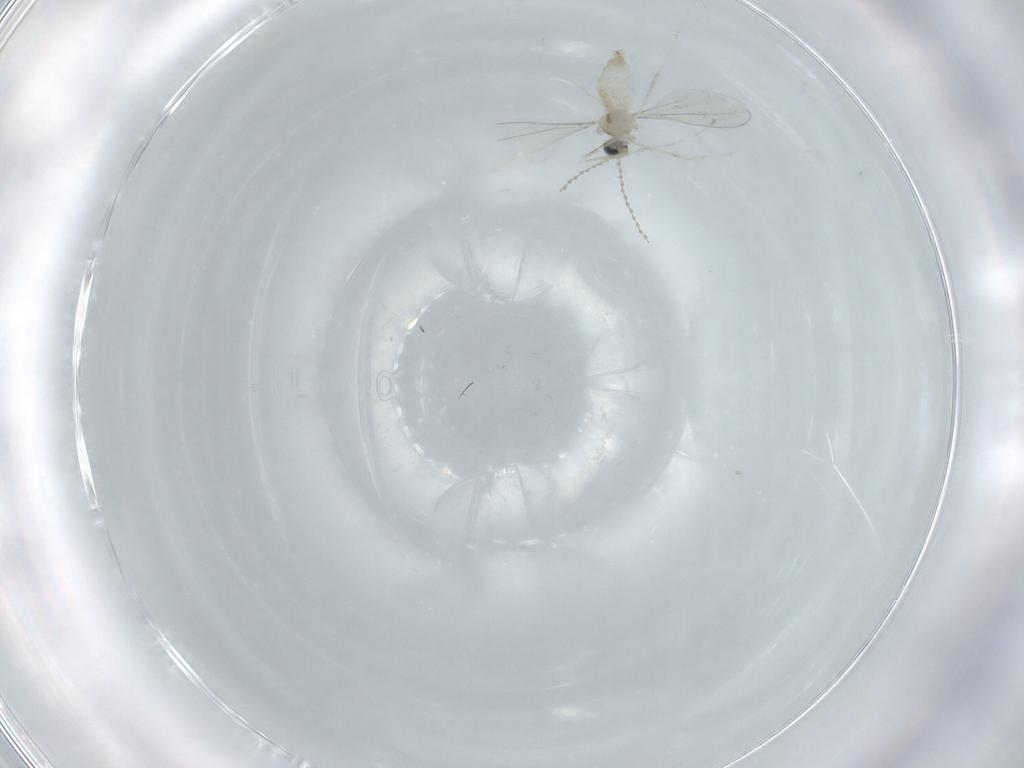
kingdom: Animalia
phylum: Arthropoda
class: Insecta
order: Diptera
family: Cecidomyiidae
